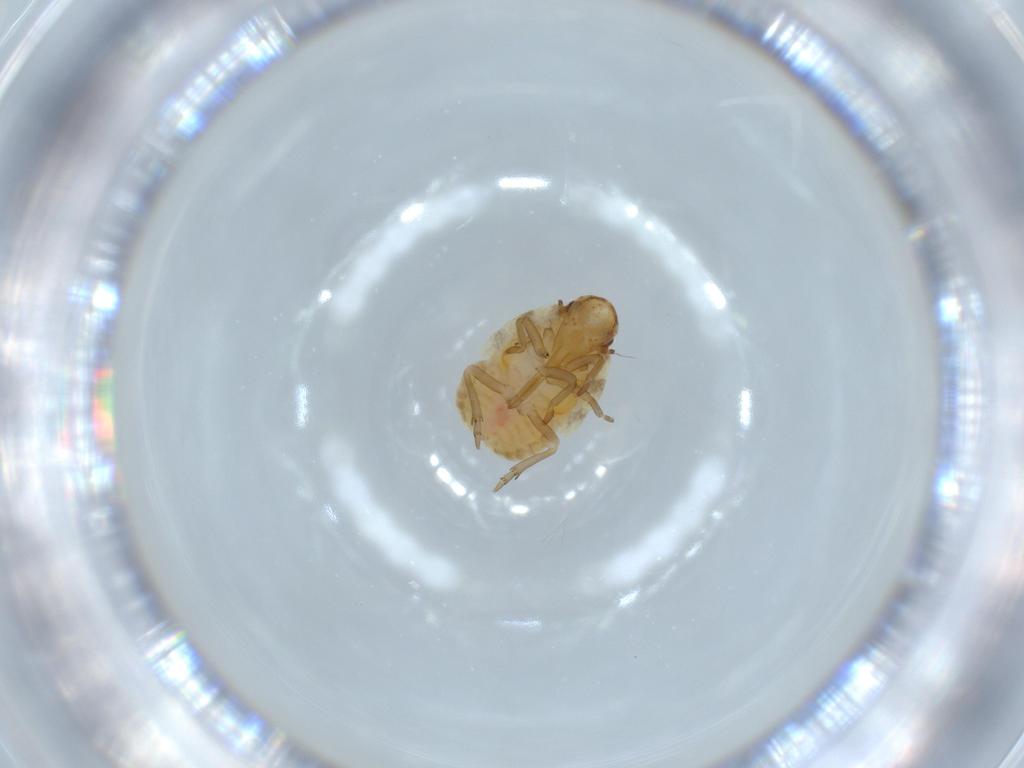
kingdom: Animalia
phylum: Arthropoda
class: Insecta
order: Hemiptera
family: Flatidae
